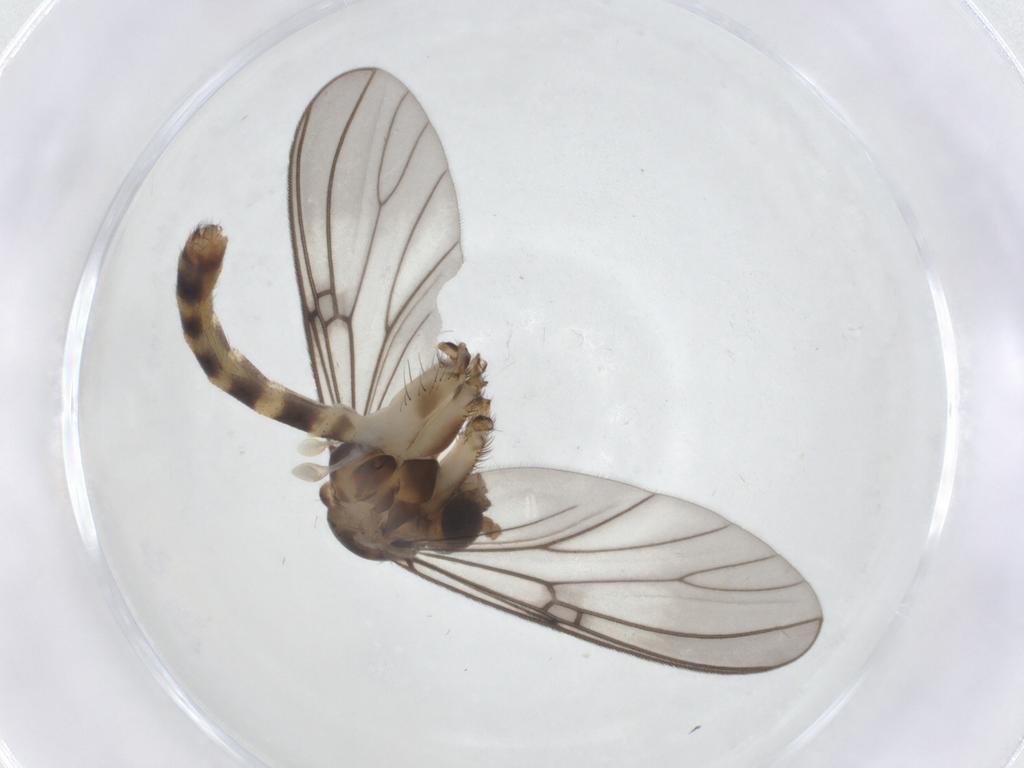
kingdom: Animalia
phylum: Arthropoda
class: Insecta
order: Diptera
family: Mycetophilidae
